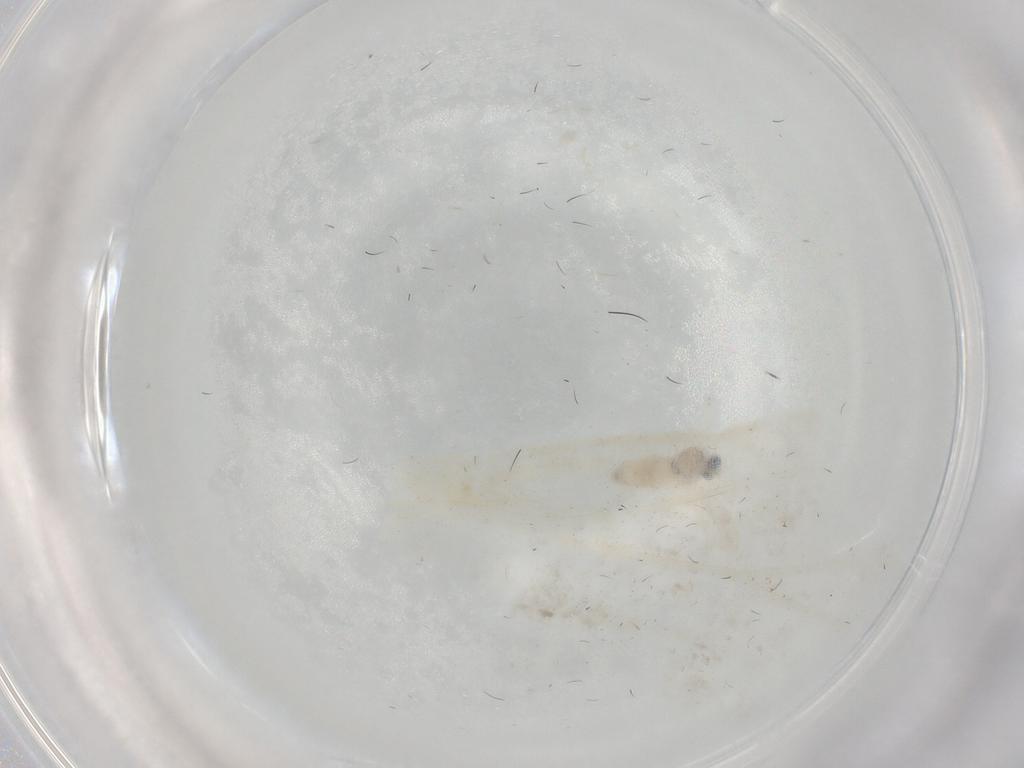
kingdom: Animalia
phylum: Arthropoda
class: Insecta
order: Diptera
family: Cecidomyiidae
